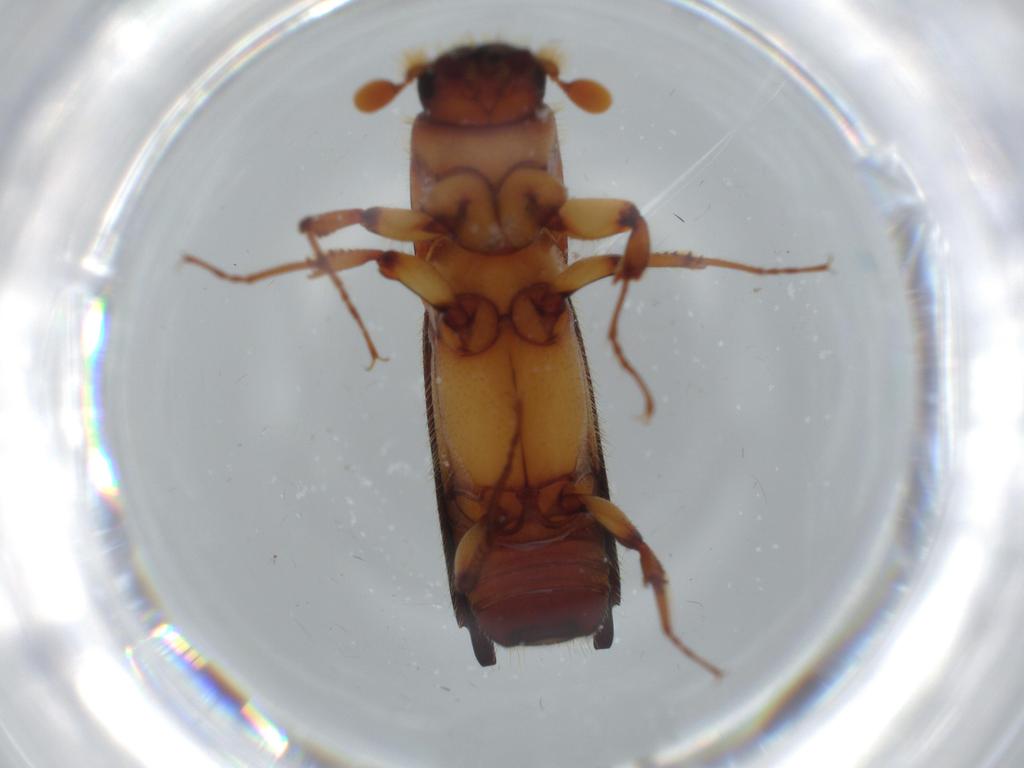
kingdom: Animalia
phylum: Arthropoda
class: Insecta
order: Coleoptera
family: Curculionidae
